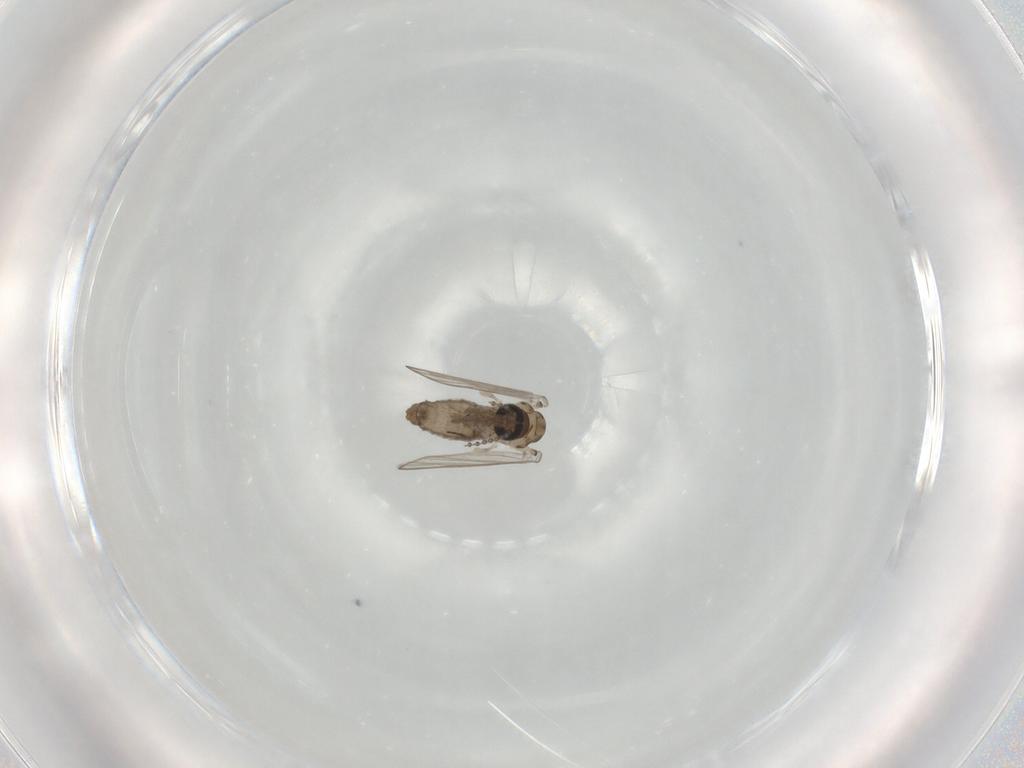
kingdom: Animalia
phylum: Arthropoda
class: Insecta
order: Diptera
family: Psychodidae
